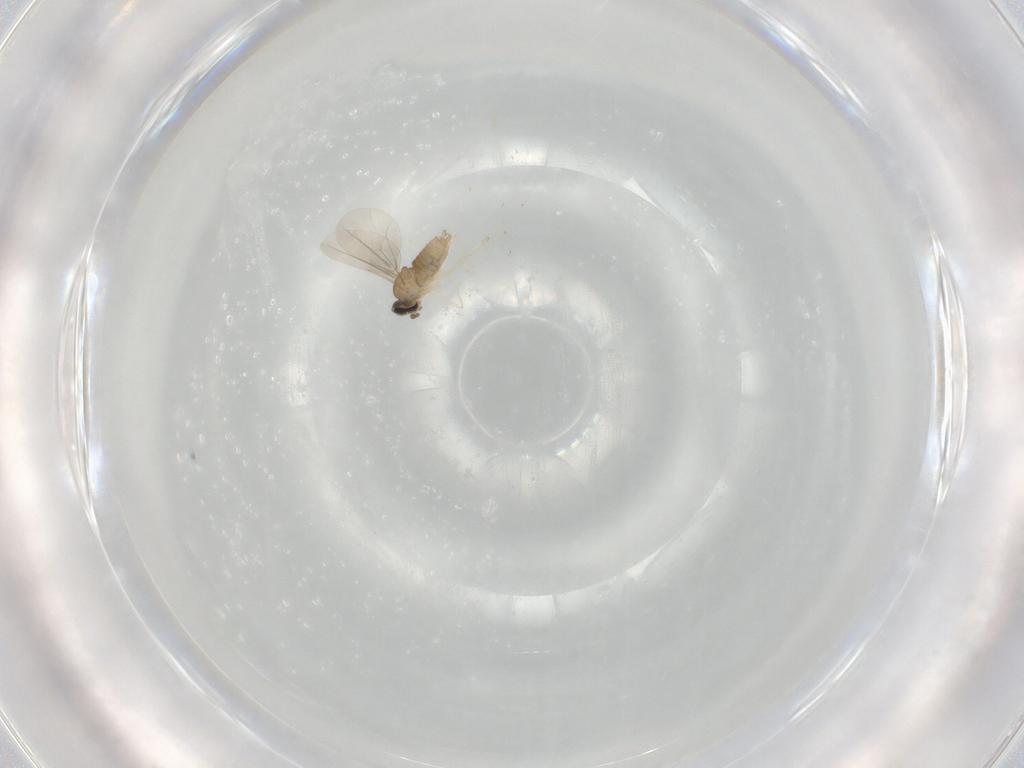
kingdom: Animalia
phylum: Arthropoda
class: Insecta
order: Diptera
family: Cecidomyiidae
